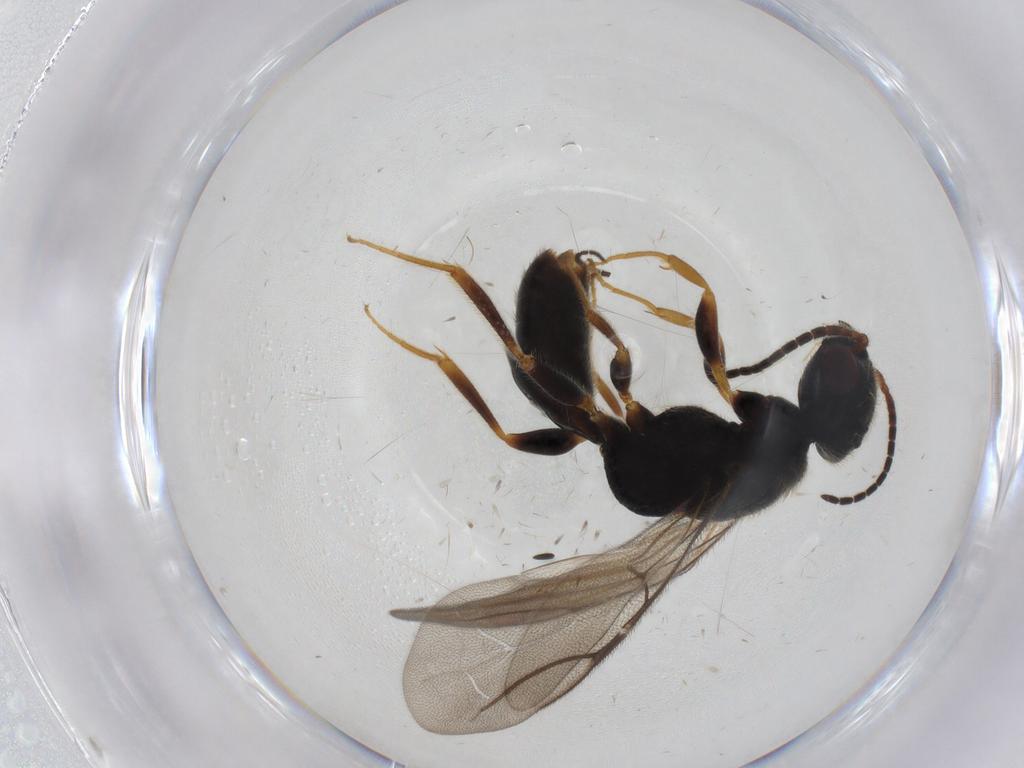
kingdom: Animalia
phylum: Arthropoda
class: Insecta
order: Hymenoptera
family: Bethylidae
